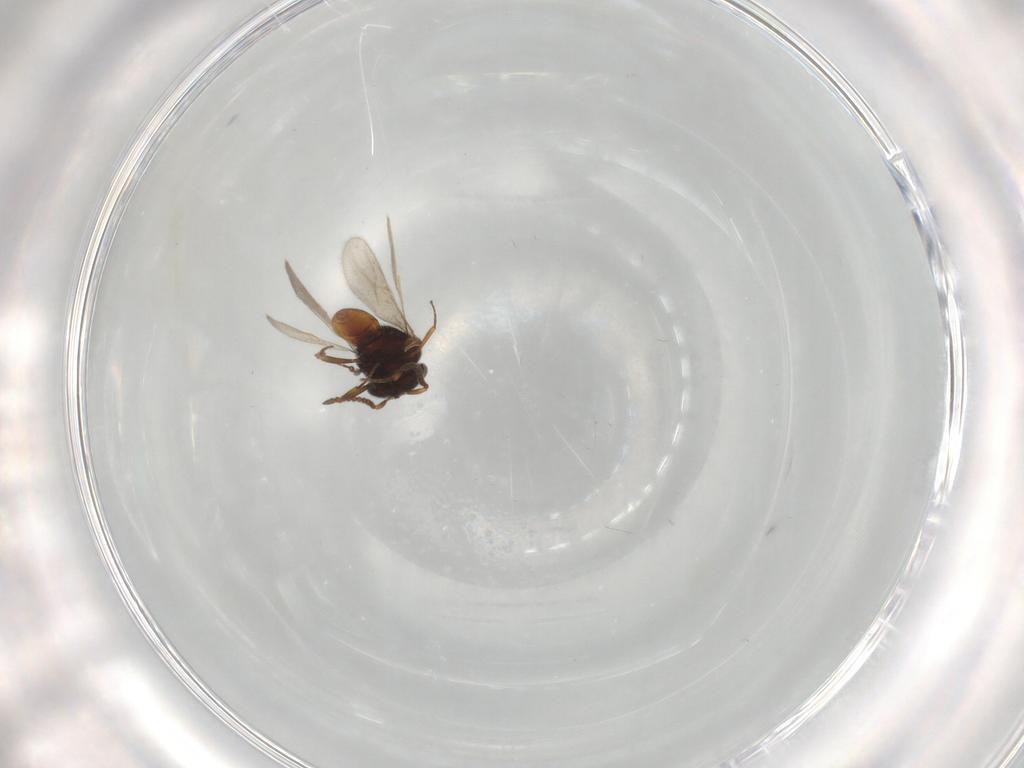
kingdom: Animalia
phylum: Arthropoda
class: Insecta
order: Hymenoptera
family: Scelionidae
